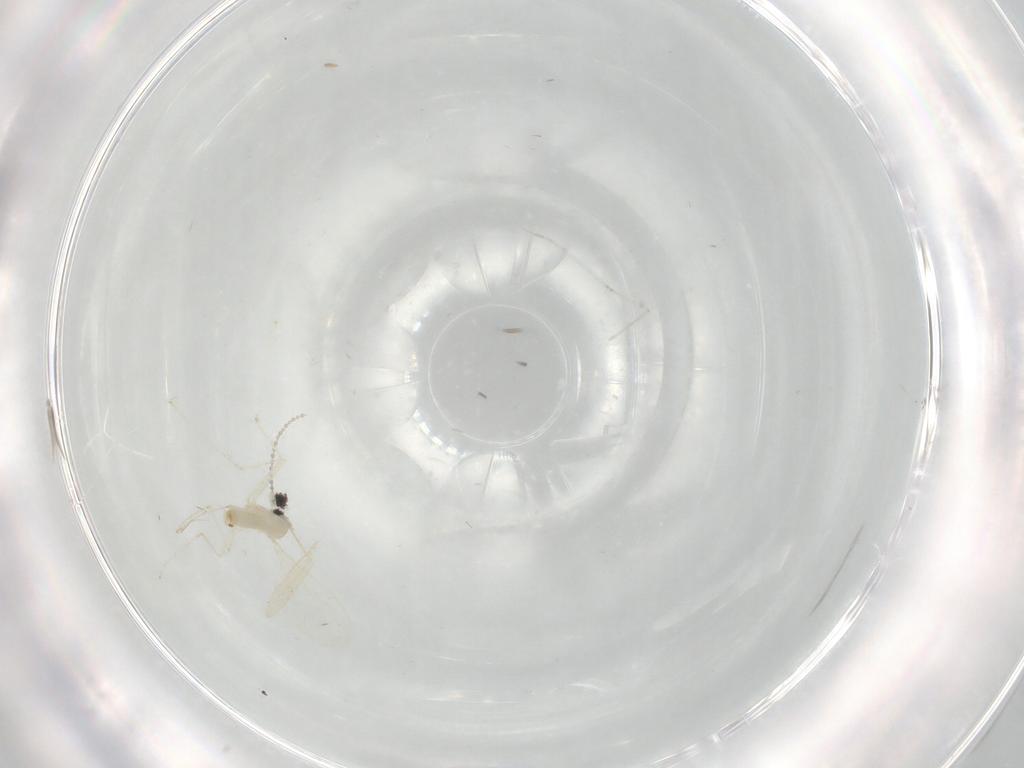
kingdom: Animalia
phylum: Arthropoda
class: Insecta
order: Diptera
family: Cecidomyiidae
